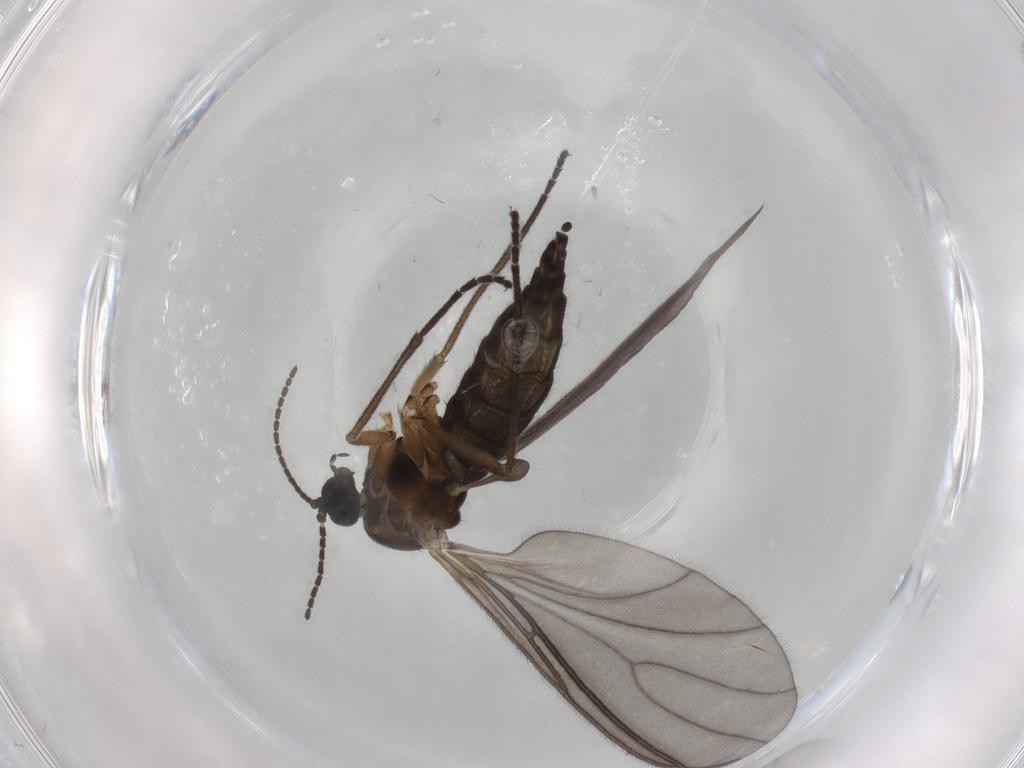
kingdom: Animalia
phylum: Arthropoda
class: Insecta
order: Diptera
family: Sciaridae
